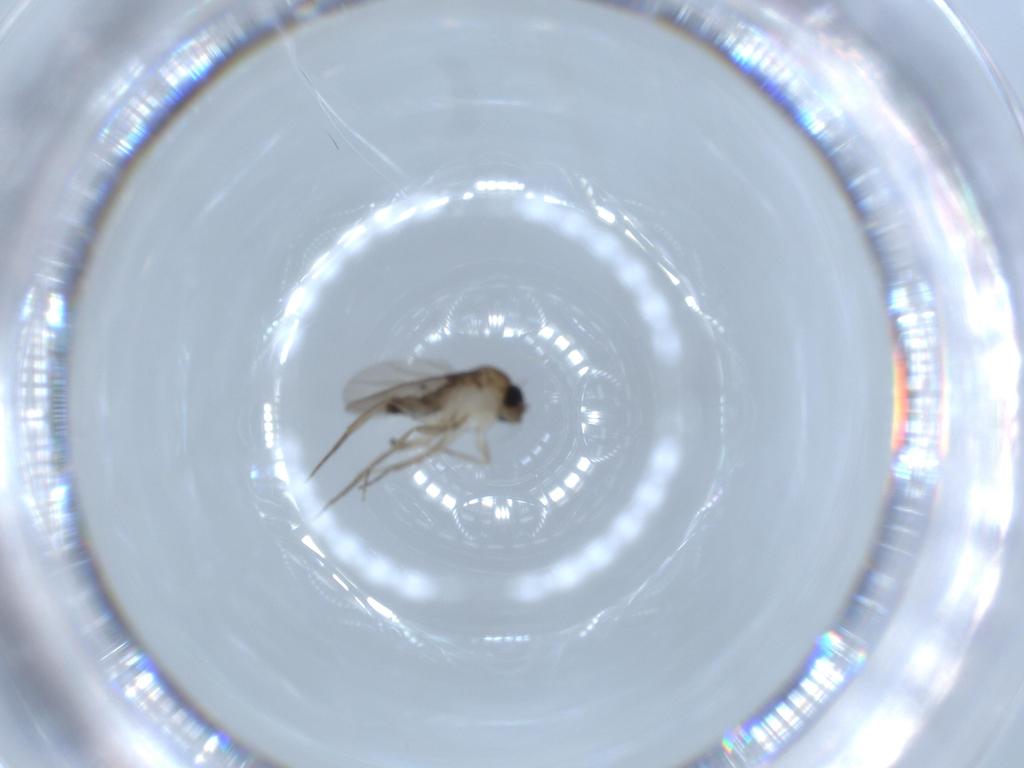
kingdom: Animalia
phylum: Arthropoda
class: Insecta
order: Diptera
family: Phoridae
